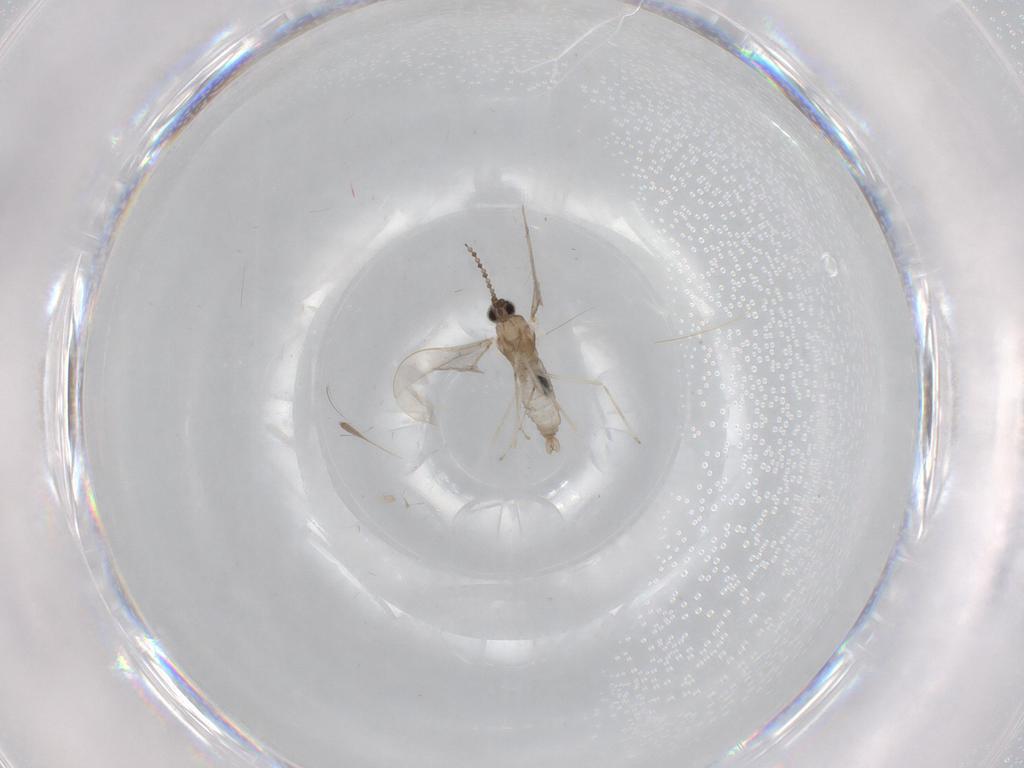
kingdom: Animalia
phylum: Arthropoda
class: Insecta
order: Diptera
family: Cecidomyiidae
